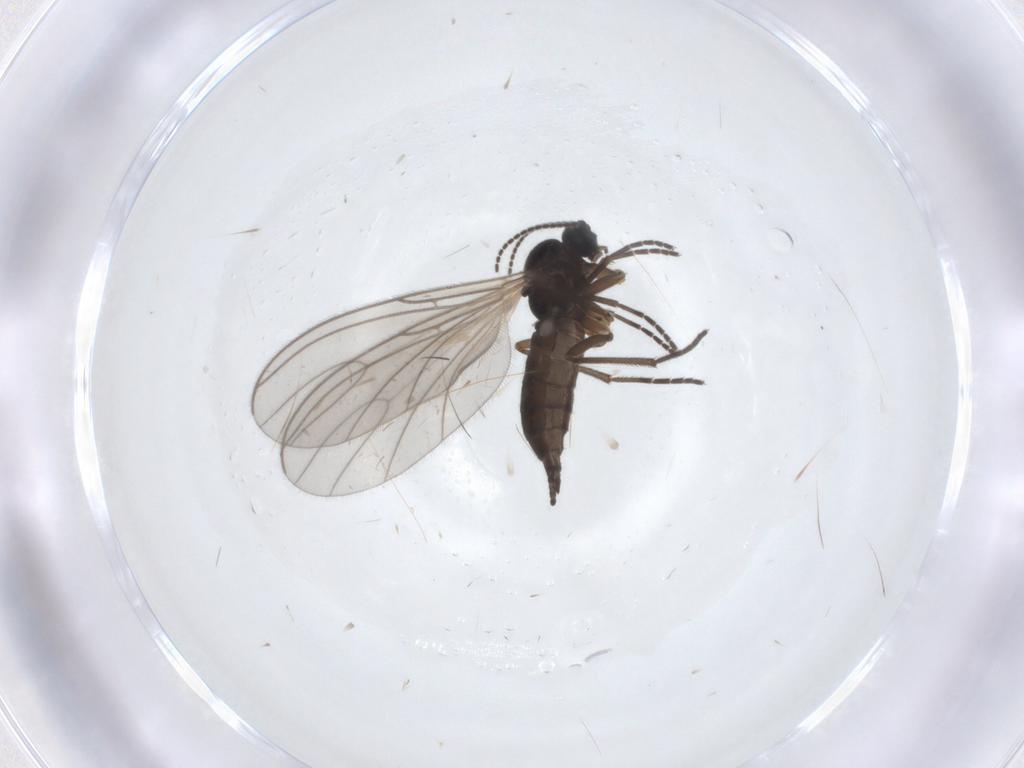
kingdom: Animalia
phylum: Arthropoda
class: Insecta
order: Diptera
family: Sciaridae
